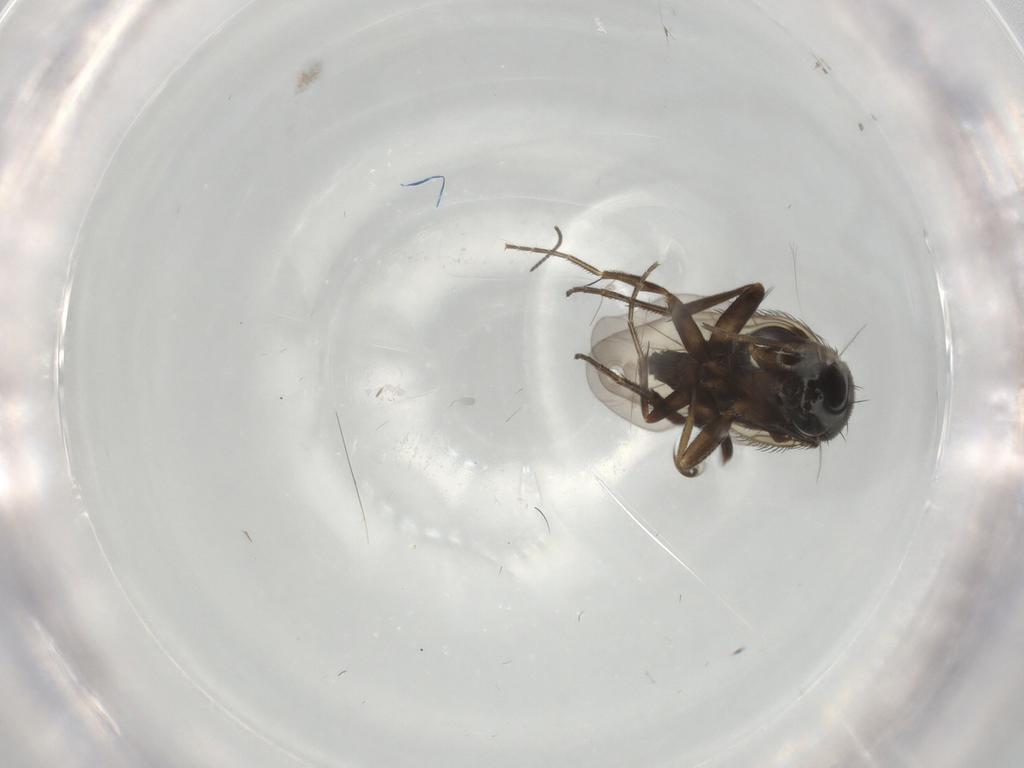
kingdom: Animalia
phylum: Arthropoda
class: Insecta
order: Diptera
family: Phoridae
